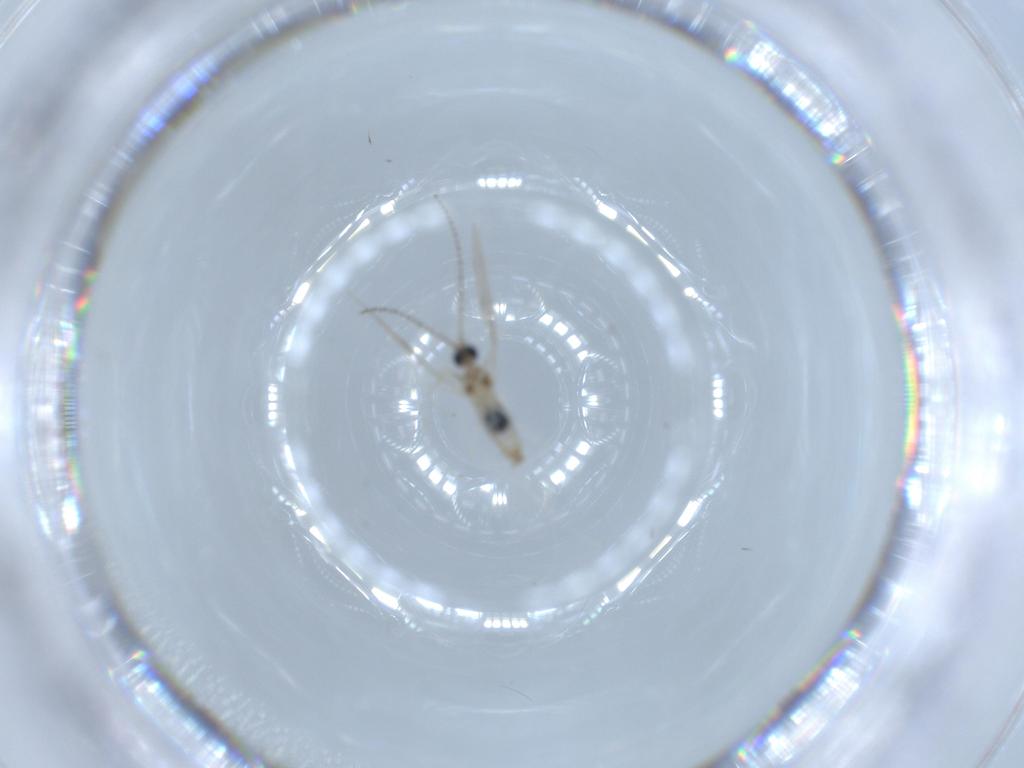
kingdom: Animalia
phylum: Arthropoda
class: Insecta
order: Diptera
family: Cecidomyiidae
